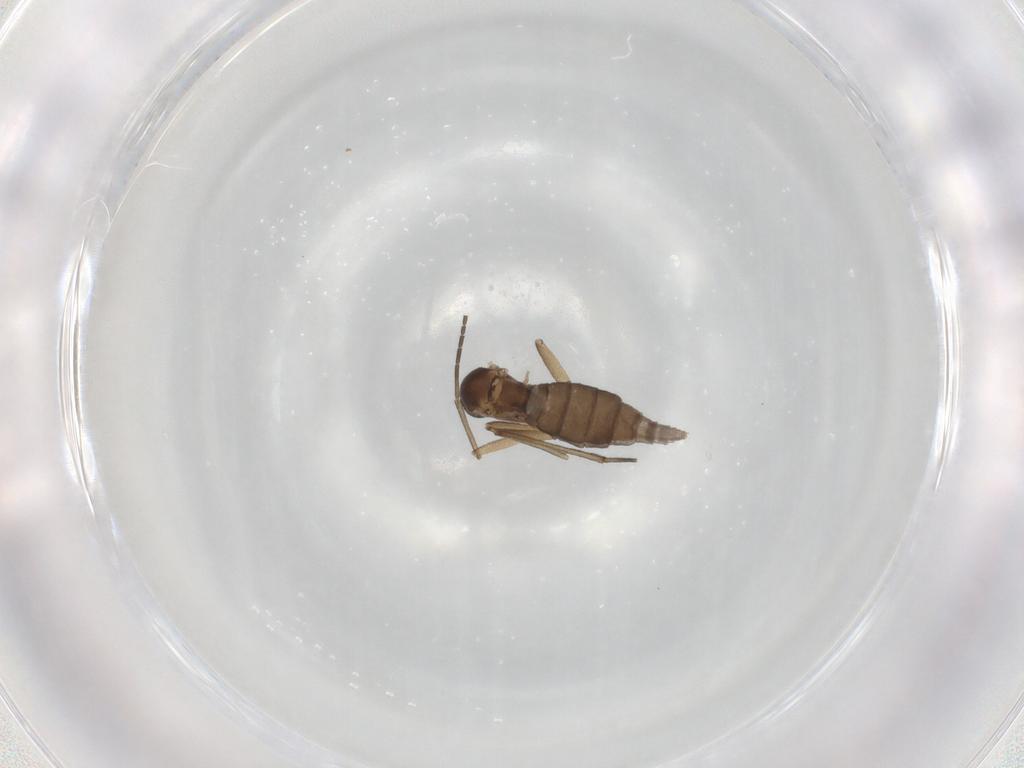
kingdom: Animalia
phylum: Arthropoda
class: Insecta
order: Diptera
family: Sciaridae
